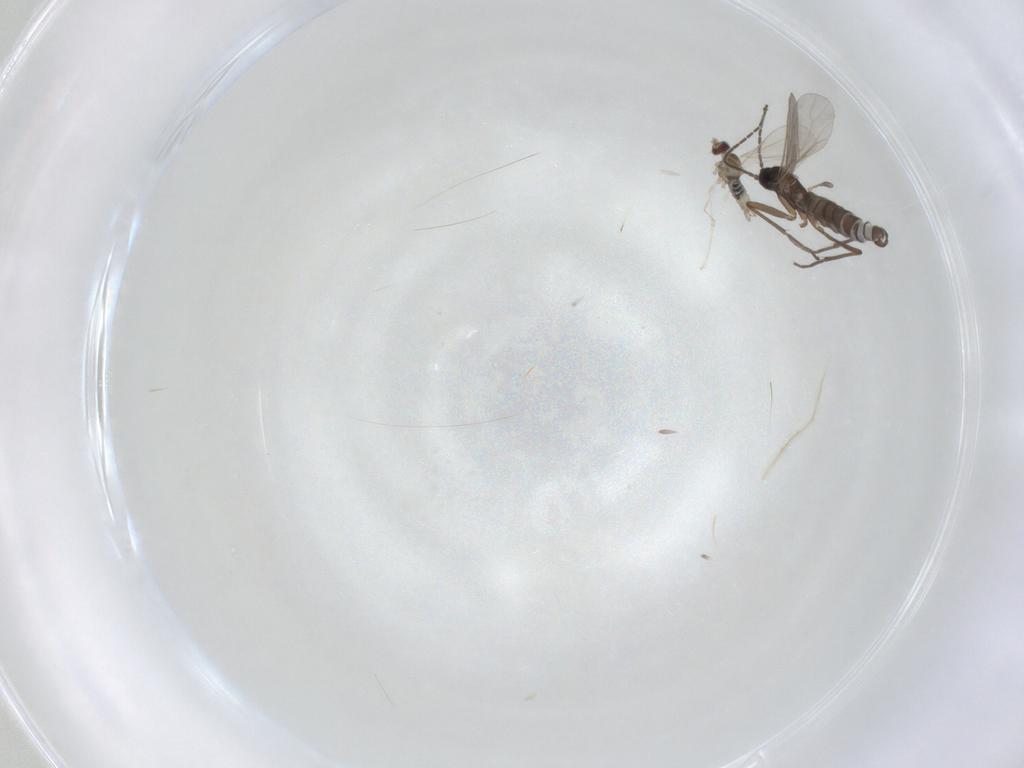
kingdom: Animalia
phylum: Arthropoda
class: Insecta
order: Diptera
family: Sciaridae
